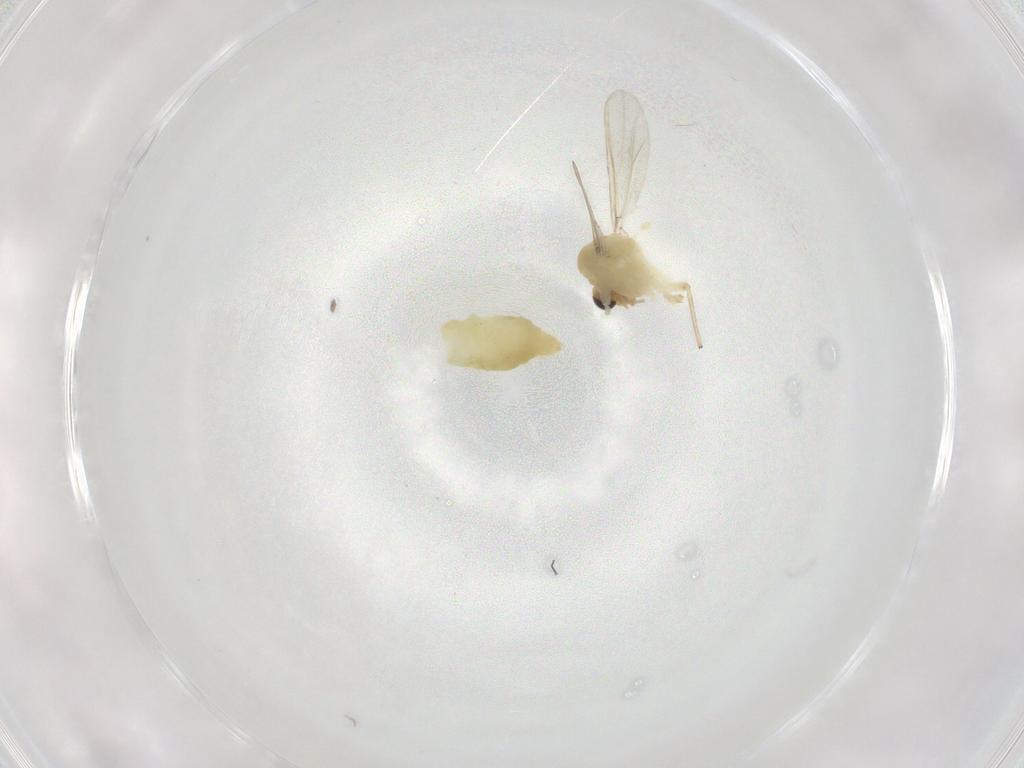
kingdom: Animalia
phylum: Arthropoda
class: Insecta
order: Diptera
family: Chironomidae
